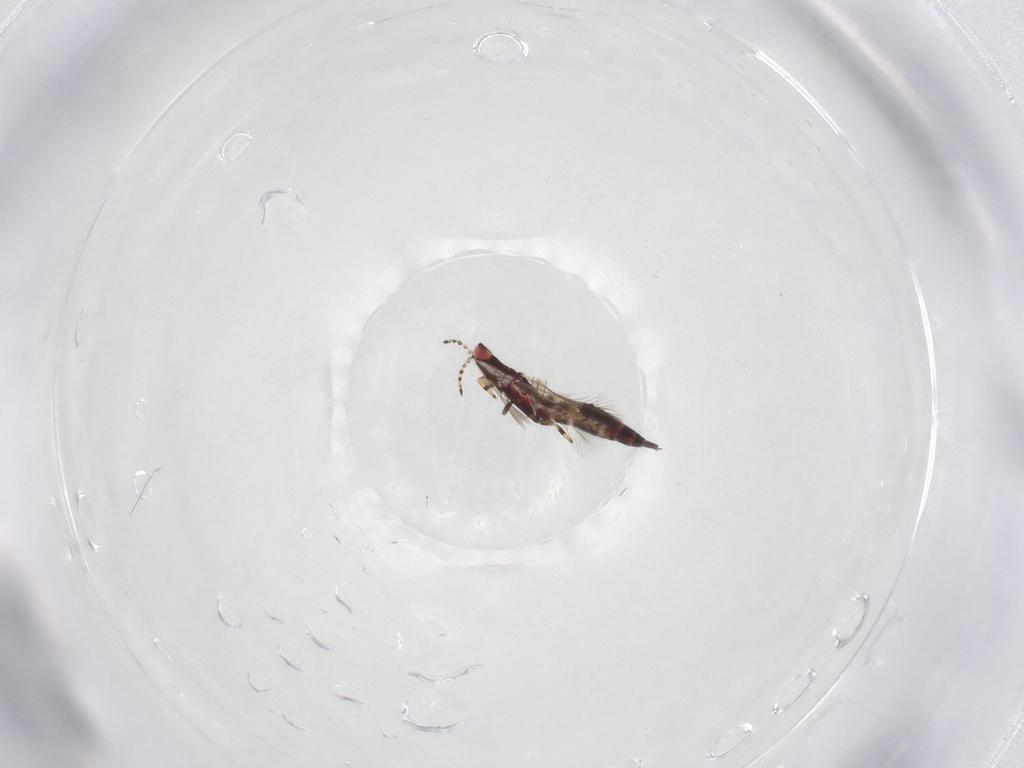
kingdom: Animalia
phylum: Arthropoda
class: Insecta
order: Thysanoptera
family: Phlaeothripidae
